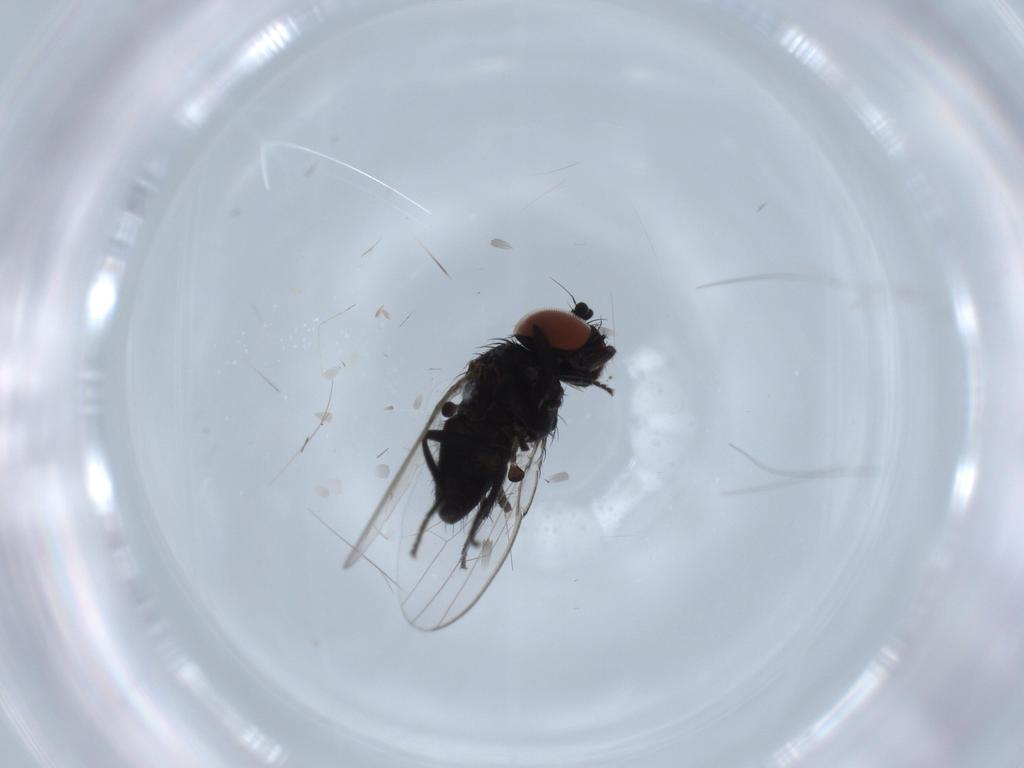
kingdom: Animalia
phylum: Arthropoda
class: Insecta
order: Diptera
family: Milichiidae
